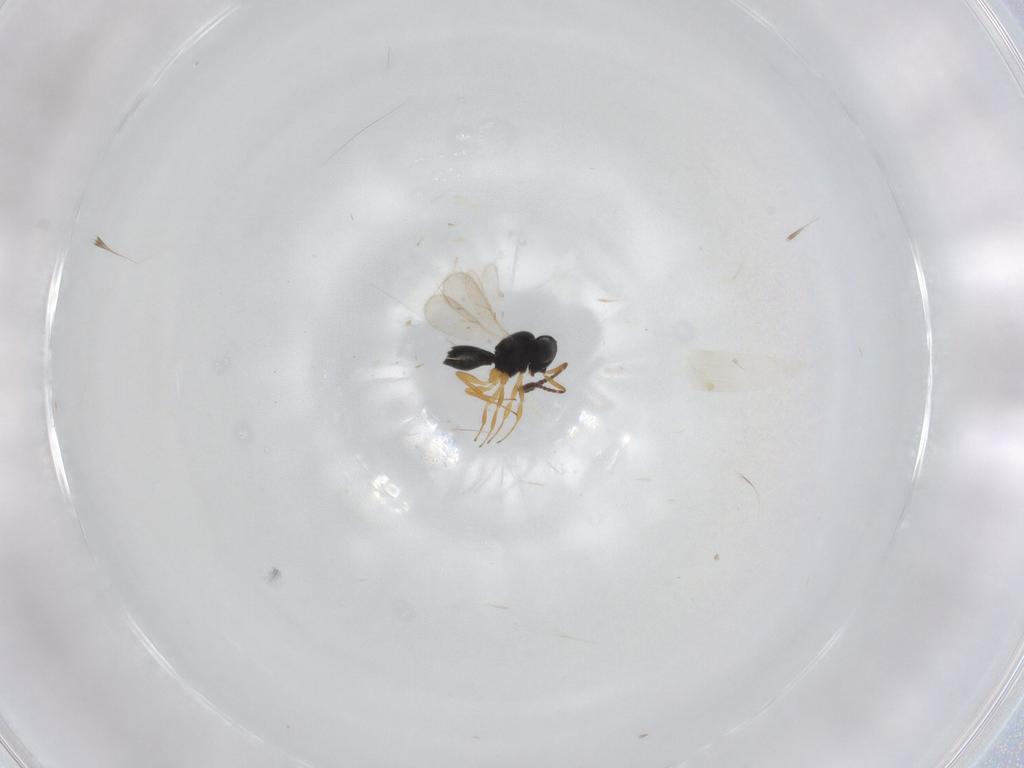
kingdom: Animalia
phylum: Arthropoda
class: Insecta
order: Hymenoptera
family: Scelionidae
